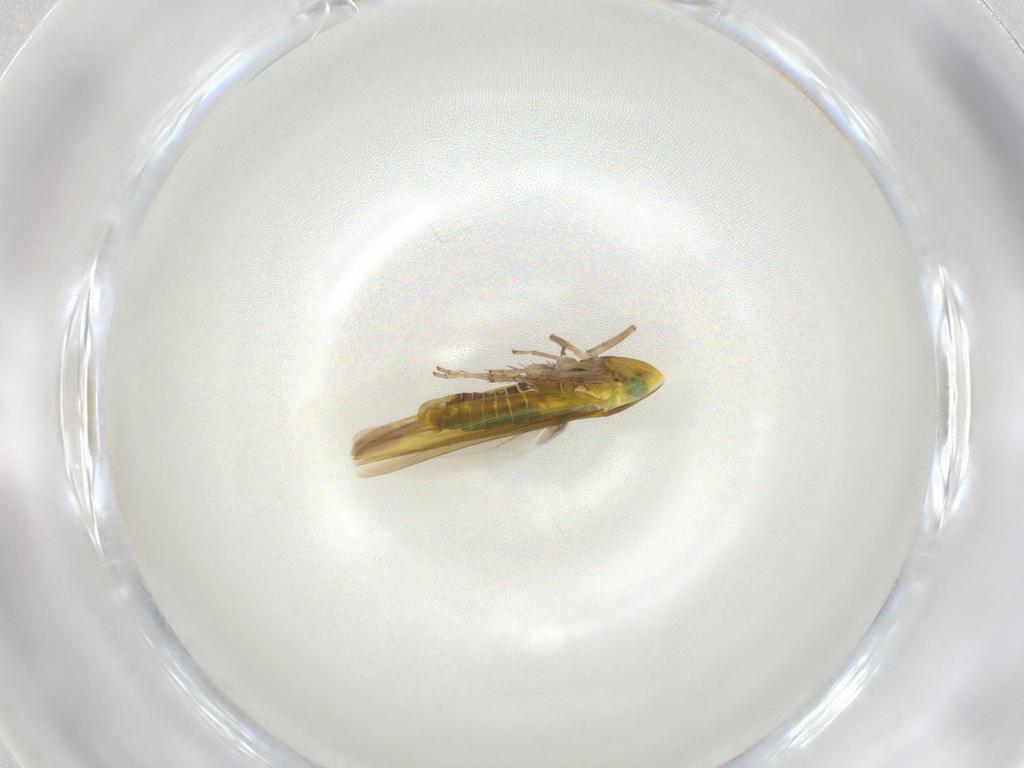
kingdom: Animalia
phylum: Arthropoda
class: Insecta
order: Hemiptera
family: Cicadellidae
